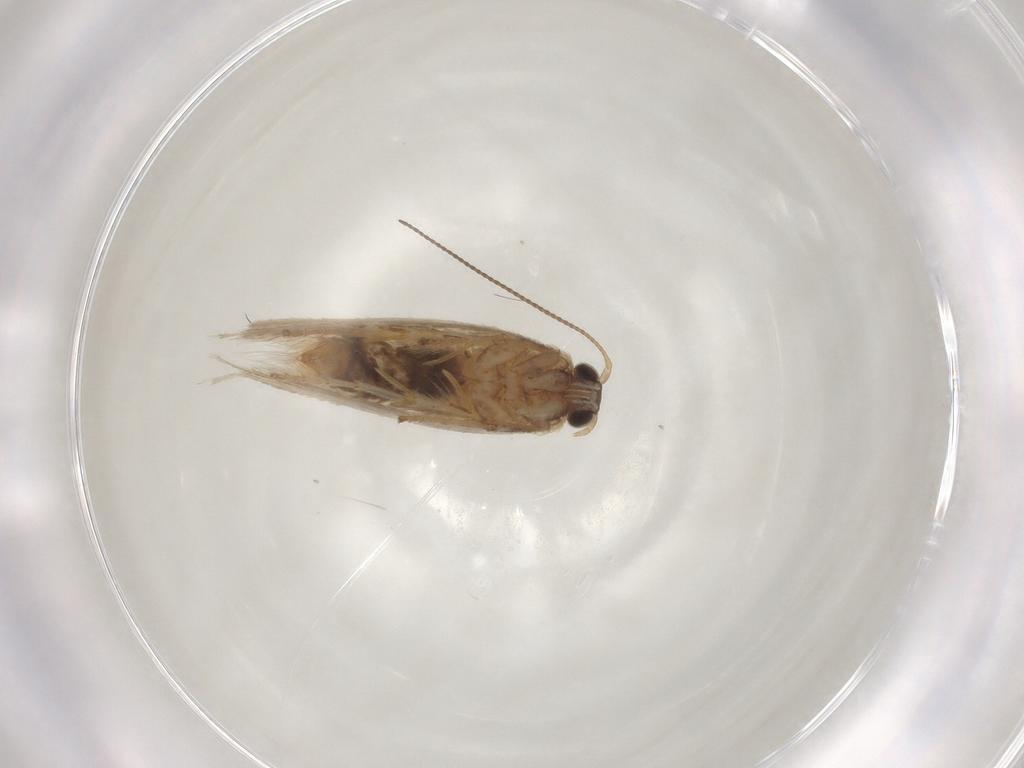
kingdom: Animalia
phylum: Arthropoda
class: Insecta
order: Lepidoptera
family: Nepticulidae
